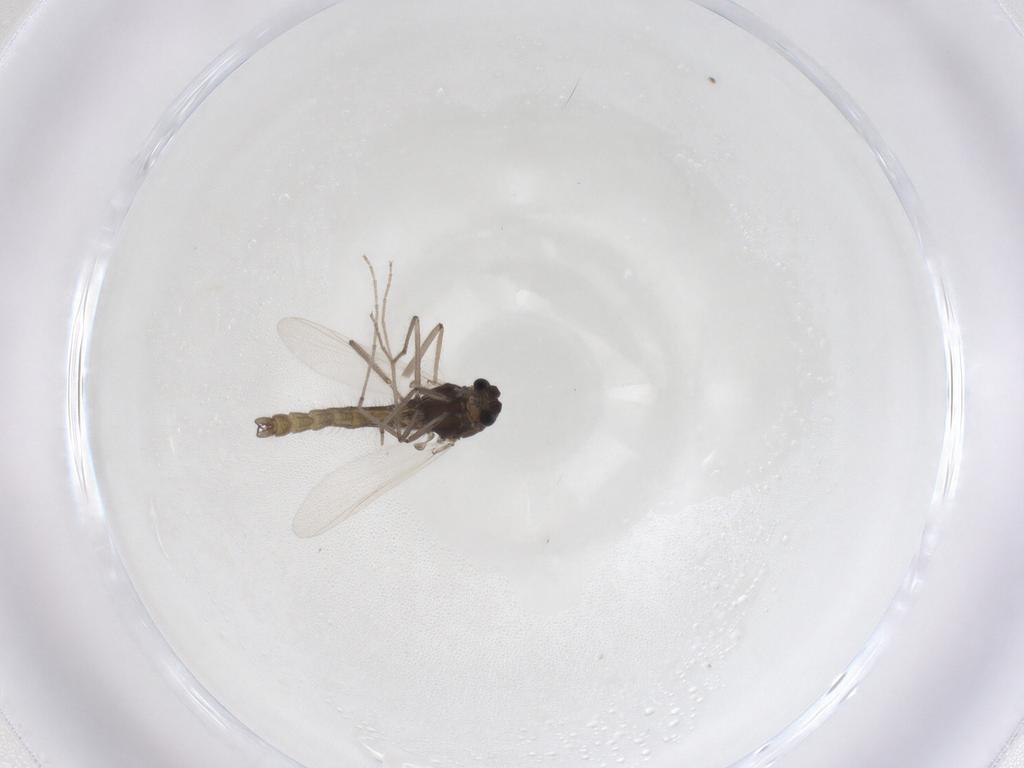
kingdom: Animalia
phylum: Arthropoda
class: Insecta
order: Diptera
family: Chironomidae
